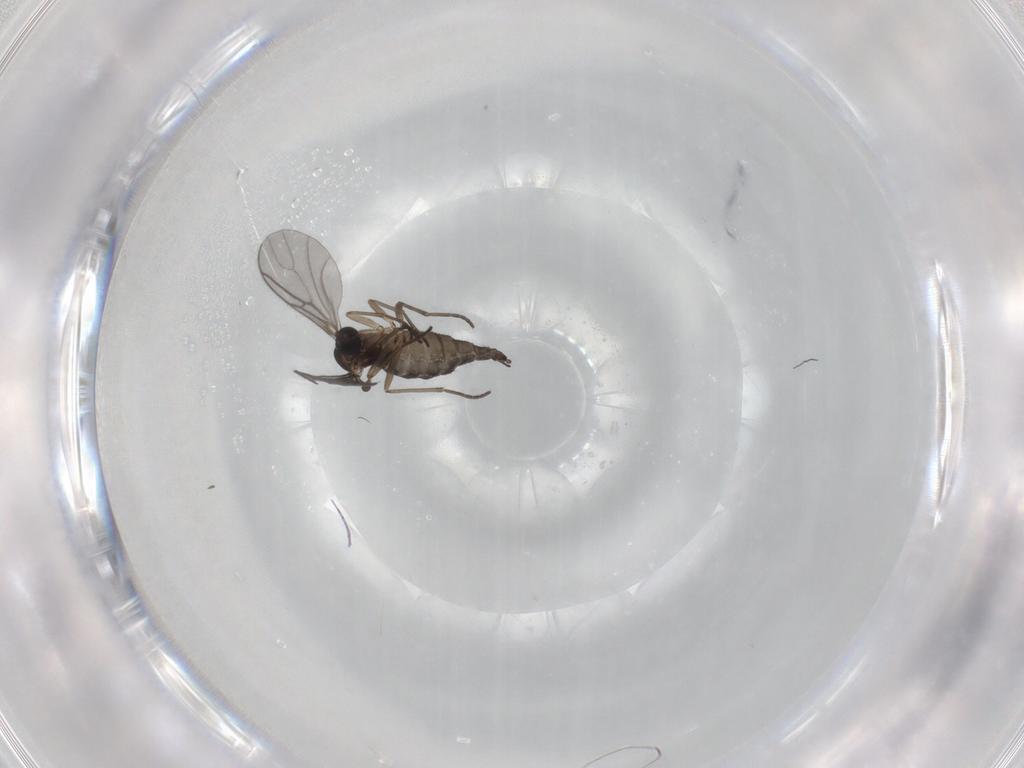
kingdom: Animalia
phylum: Arthropoda
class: Insecta
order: Diptera
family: Sciaridae
